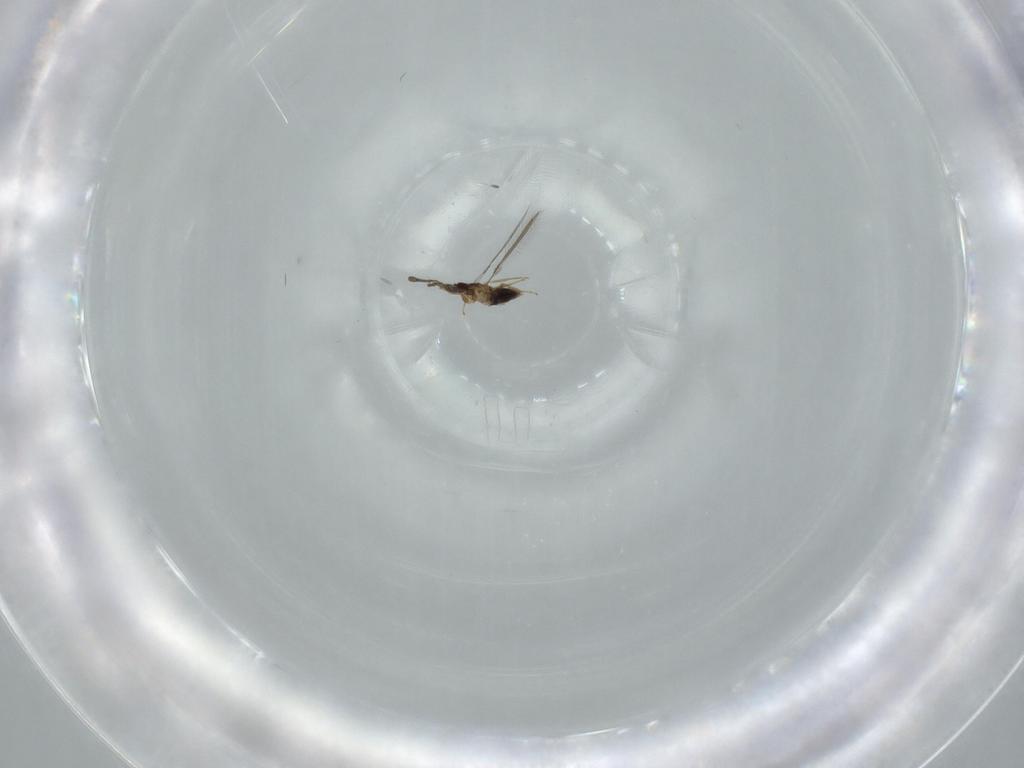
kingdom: Animalia
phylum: Arthropoda
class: Insecta
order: Hymenoptera
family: Mymaridae
